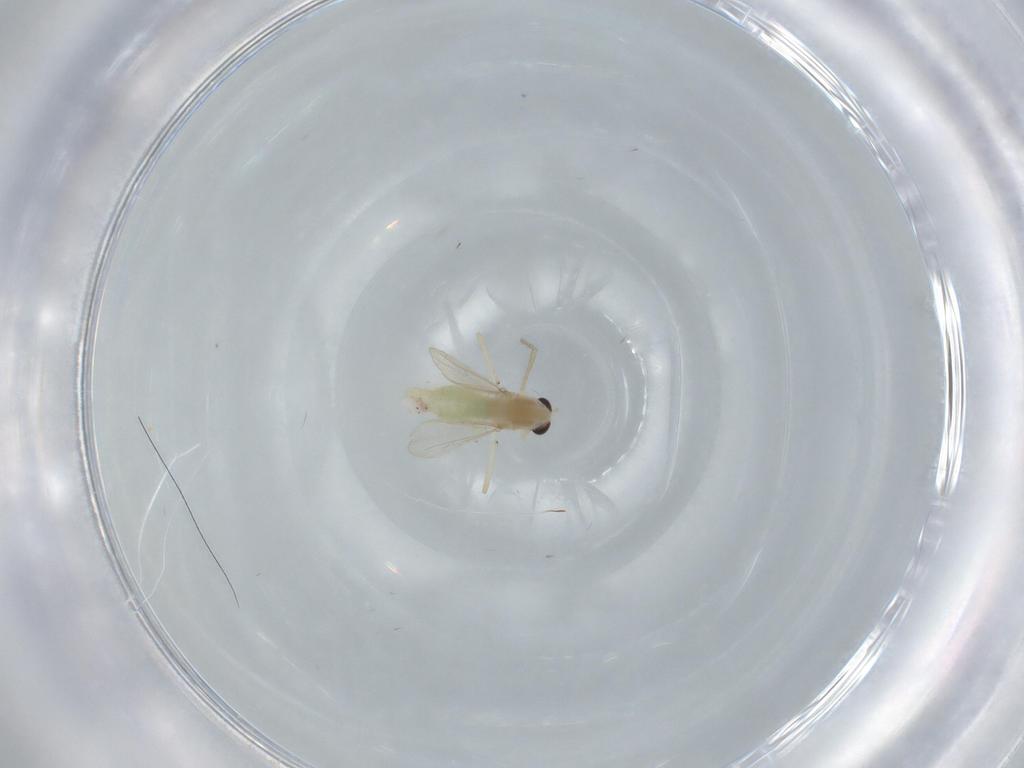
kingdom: Animalia
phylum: Arthropoda
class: Insecta
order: Diptera
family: Chironomidae
